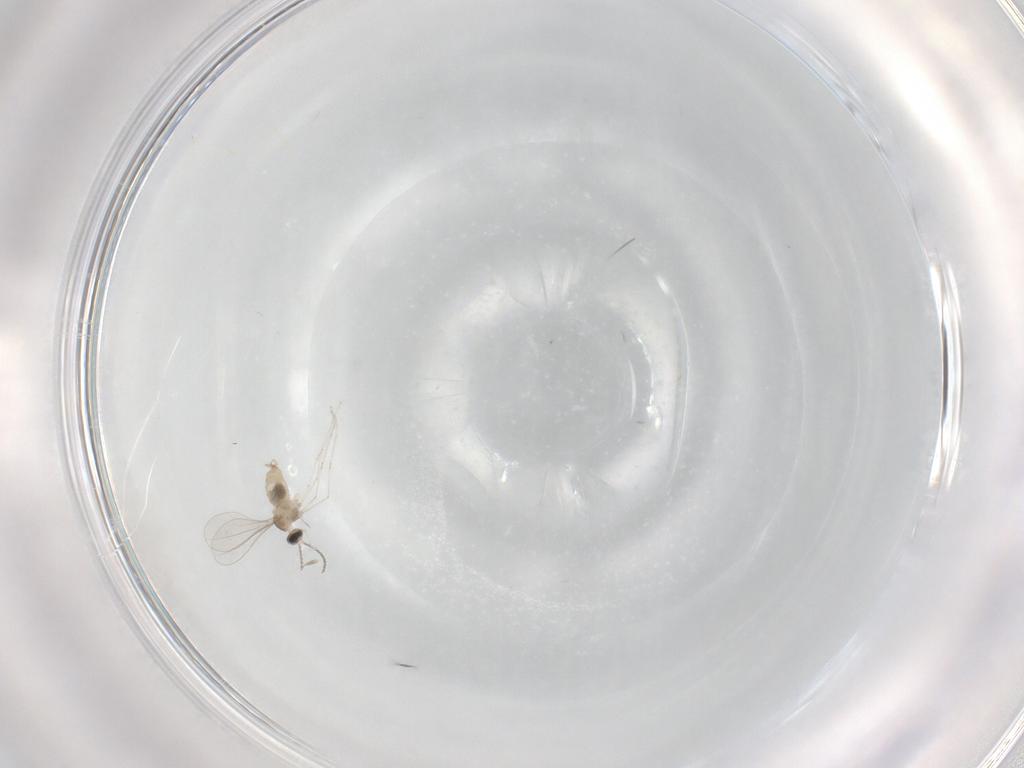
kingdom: Animalia
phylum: Arthropoda
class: Insecta
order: Diptera
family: Cecidomyiidae
